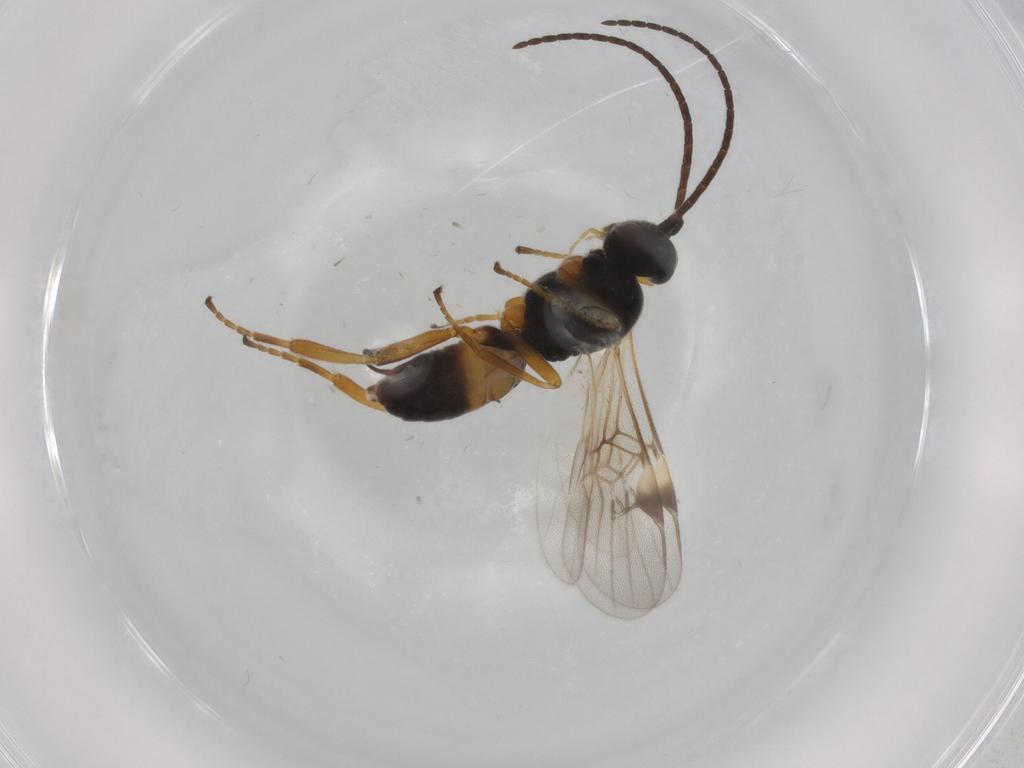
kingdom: Animalia
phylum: Arthropoda
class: Insecta
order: Hymenoptera
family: Braconidae
